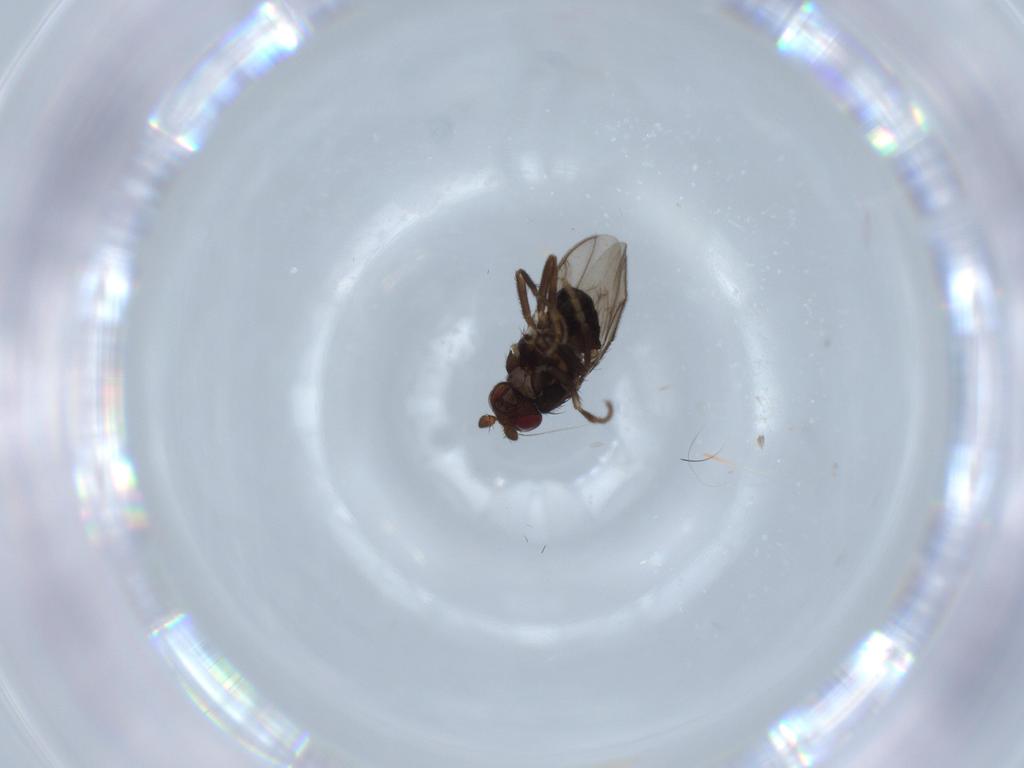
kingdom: Animalia
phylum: Arthropoda
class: Insecta
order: Diptera
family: Sphaeroceridae
